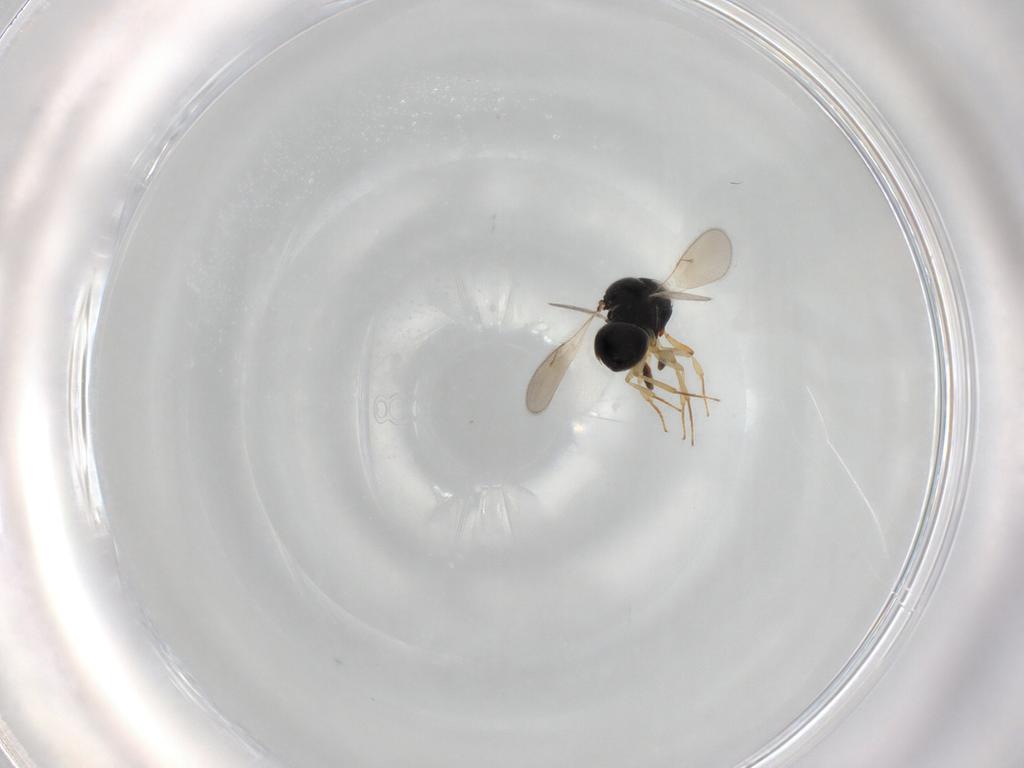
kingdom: Animalia
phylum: Arthropoda
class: Insecta
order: Hymenoptera
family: Scelionidae
